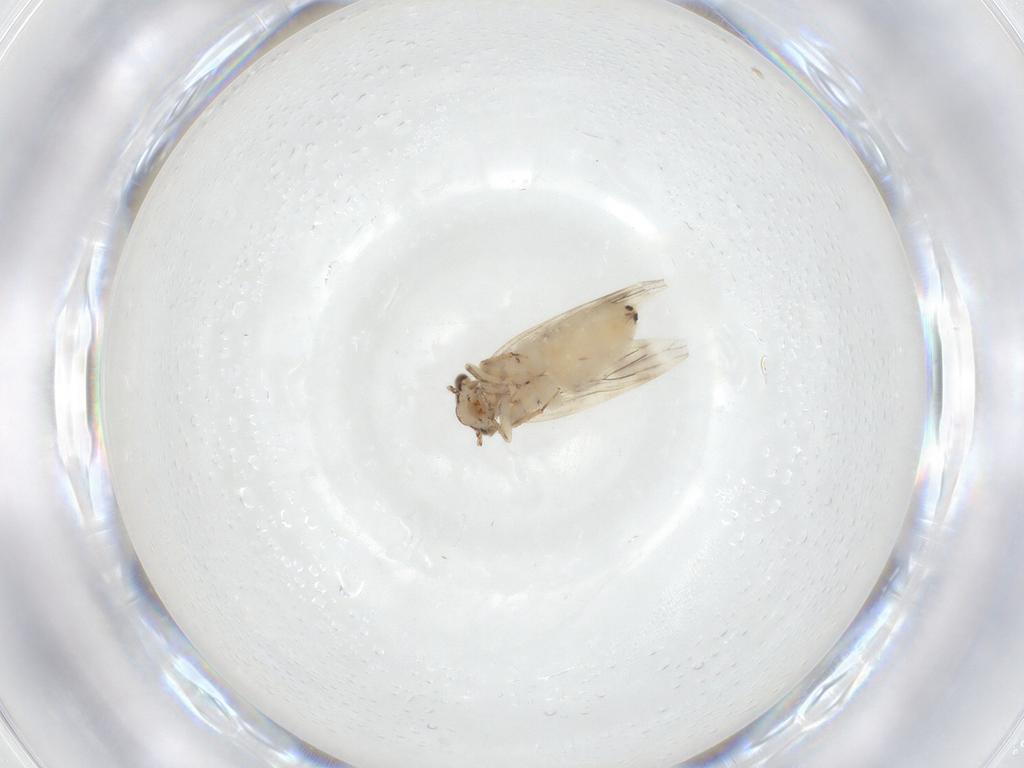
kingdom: Animalia
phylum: Arthropoda
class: Insecta
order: Psocodea
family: Lepidopsocidae
